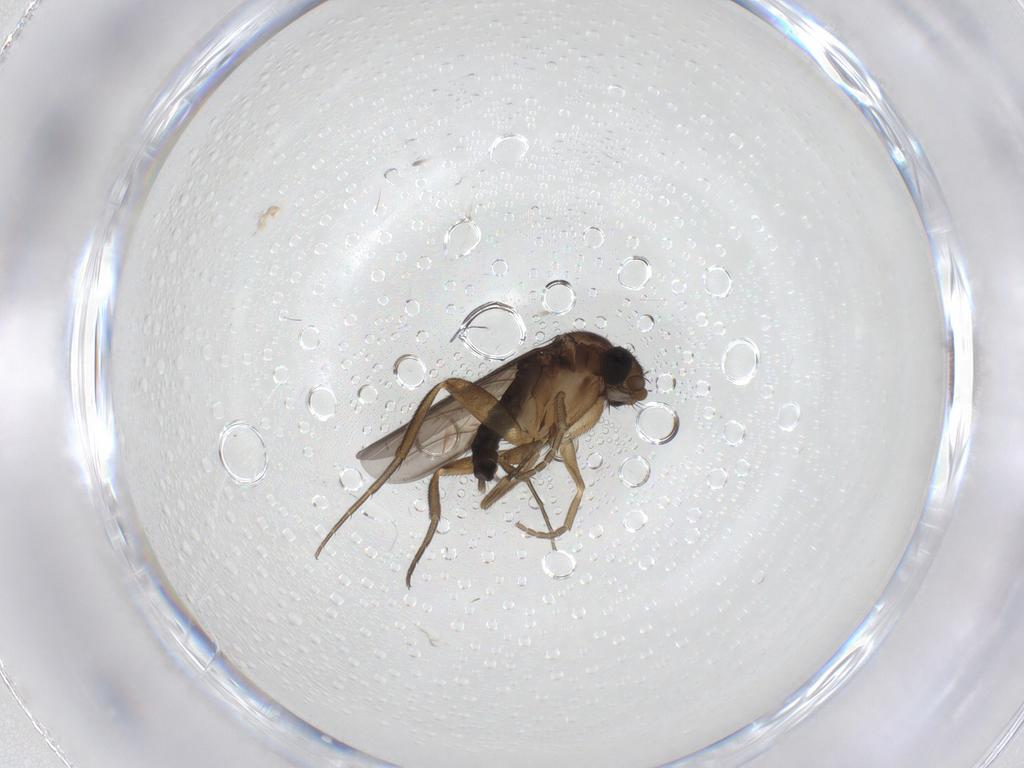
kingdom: Animalia
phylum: Arthropoda
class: Insecta
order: Diptera
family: Phoridae
